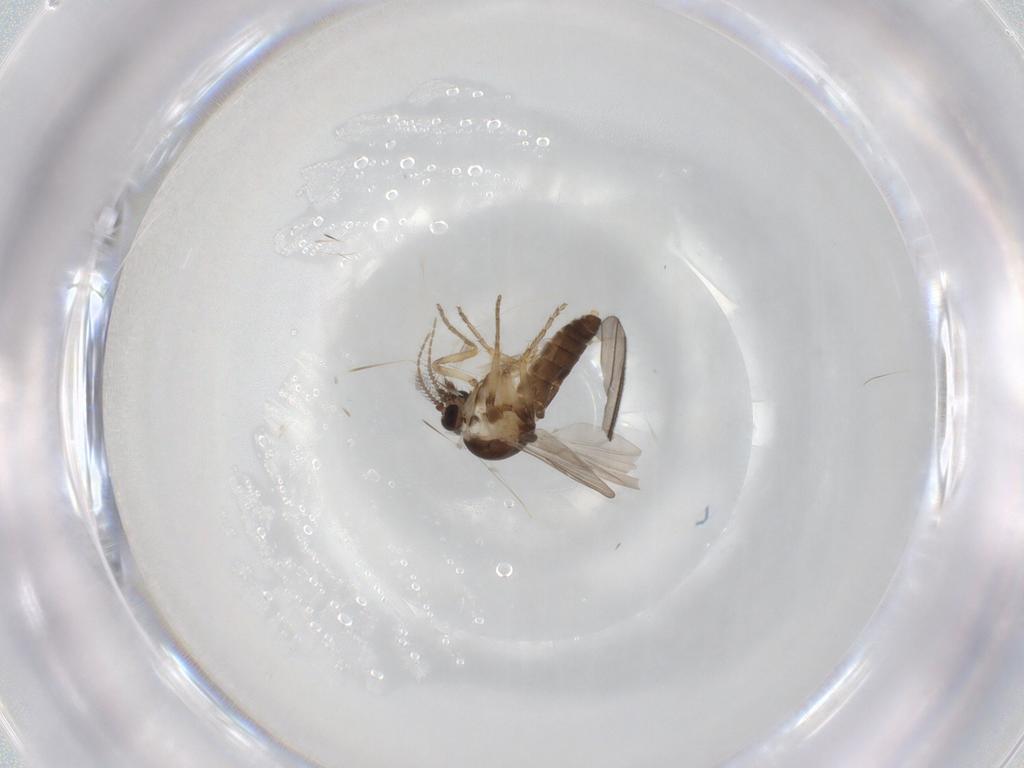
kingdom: Animalia
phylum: Arthropoda
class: Insecta
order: Diptera
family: Ceratopogonidae
